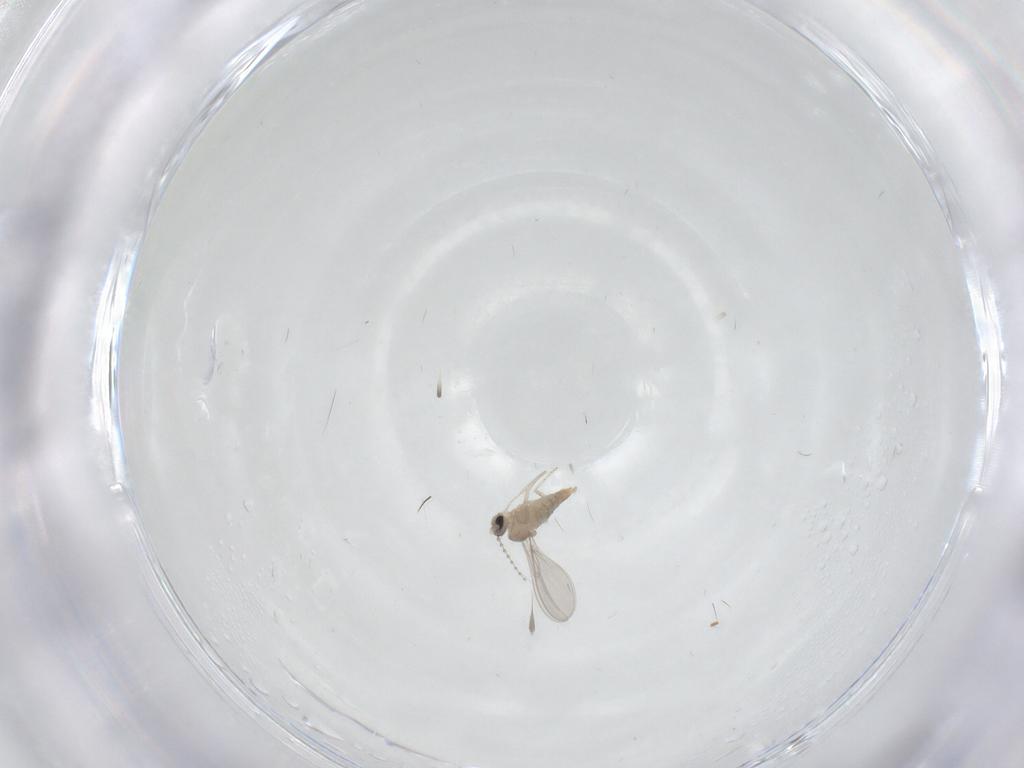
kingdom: Animalia
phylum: Arthropoda
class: Insecta
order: Diptera
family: Cecidomyiidae
